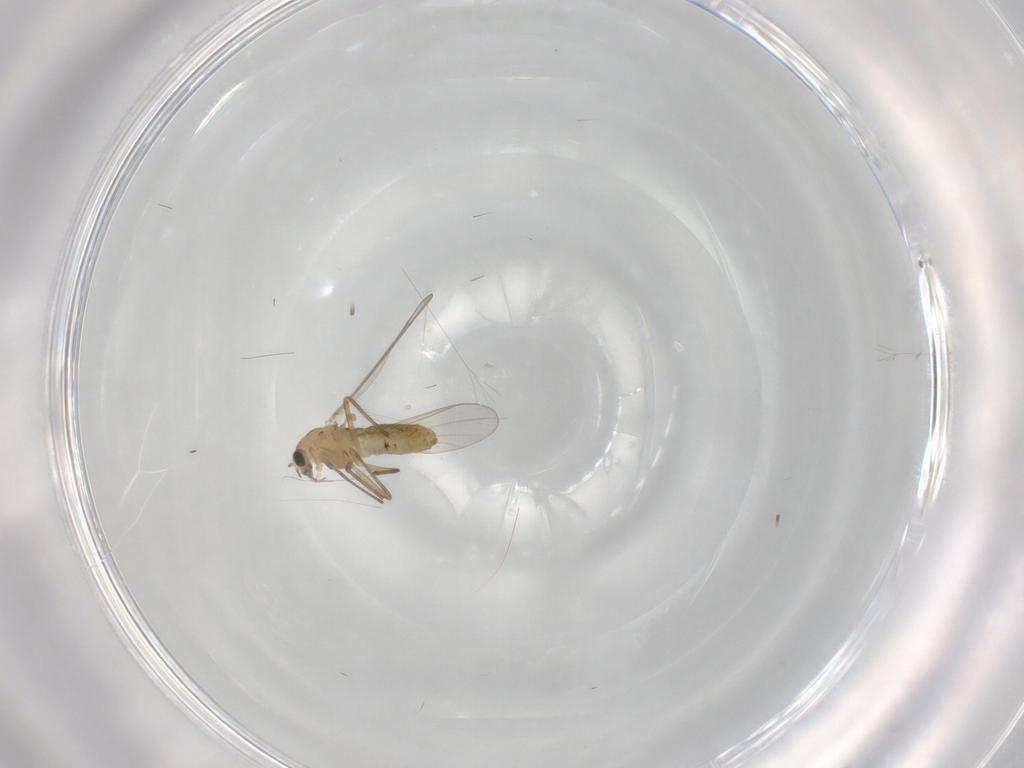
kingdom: Animalia
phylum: Arthropoda
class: Insecta
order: Diptera
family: Chironomidae
